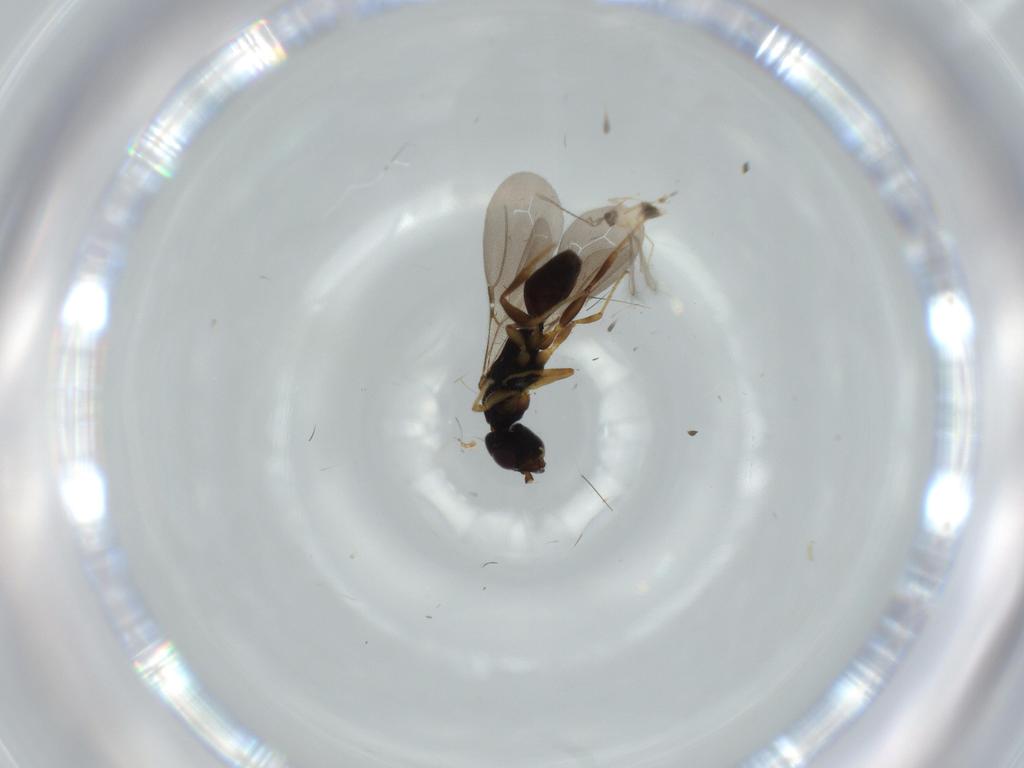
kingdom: Animalia
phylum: Arthropoda
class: Insecta
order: Hymenoptera
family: Bethylidae
